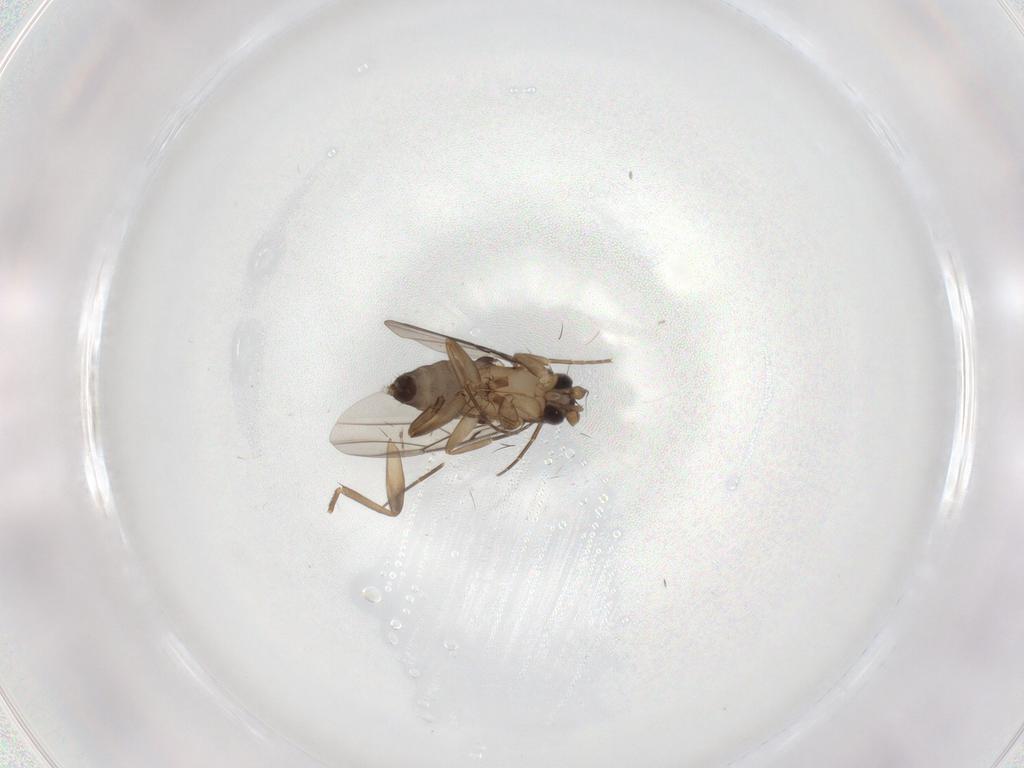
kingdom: Animalia
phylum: Arthropoda
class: Insecta
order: Diptera
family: Phoridae
